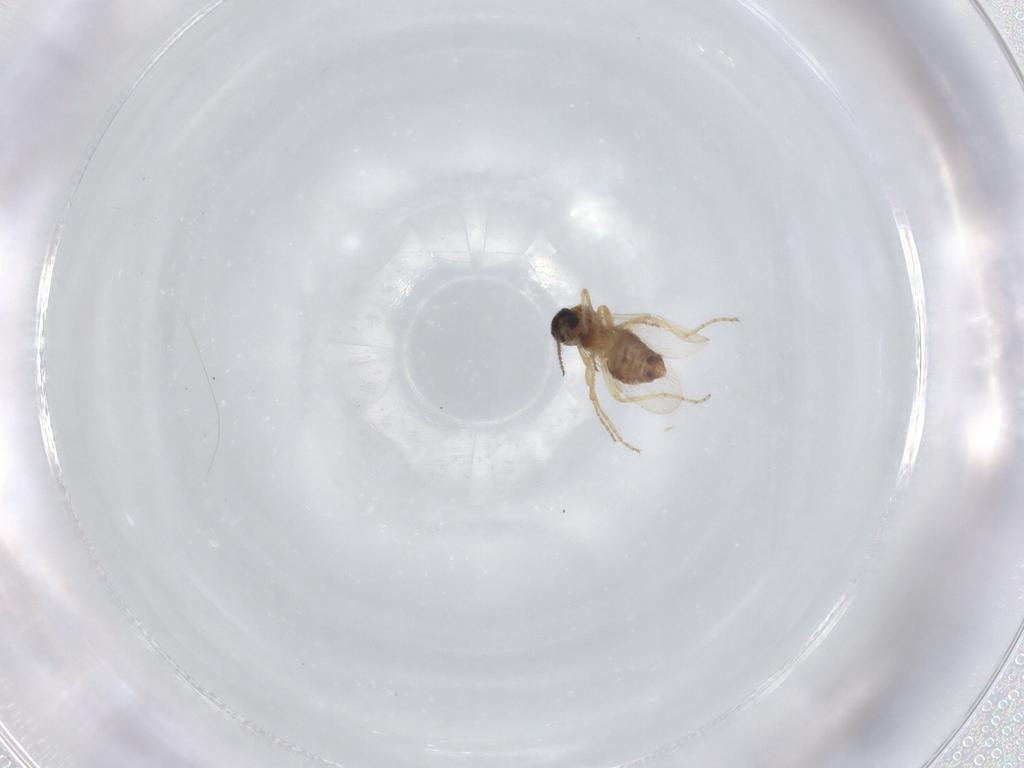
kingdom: Animalia
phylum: Arthropoda
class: Insecta
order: Diptera
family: Ceratopogonidae
